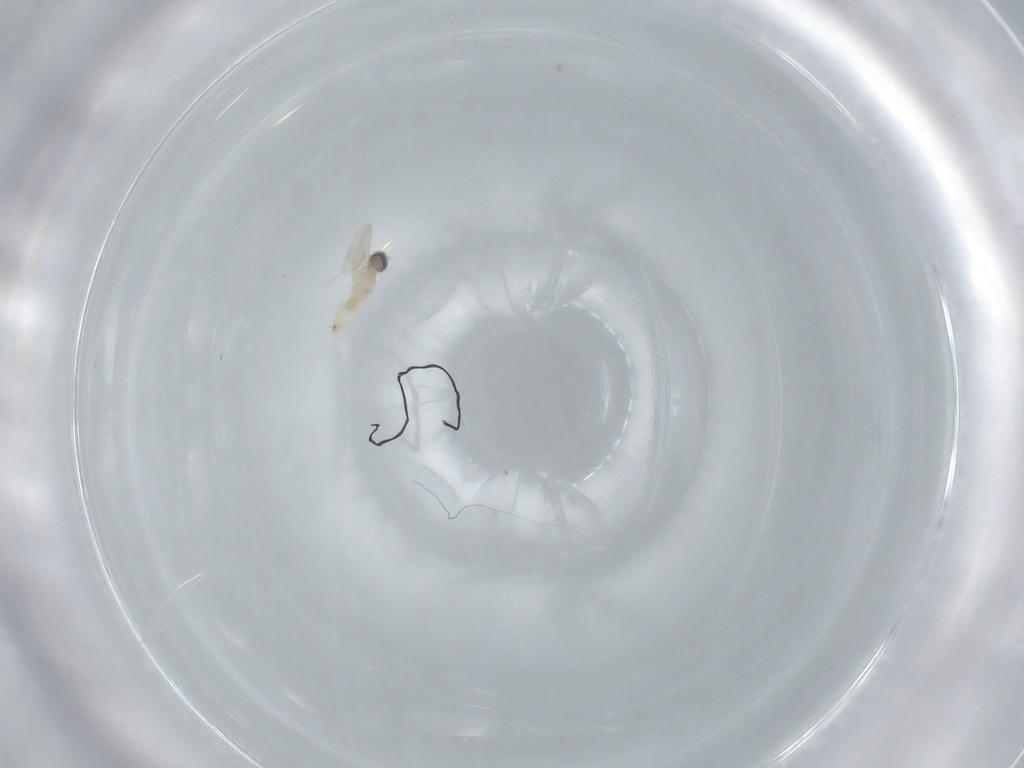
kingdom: Animalia
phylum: Arthropoda
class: Insecta
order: Diptera
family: Cecidomyiidae
